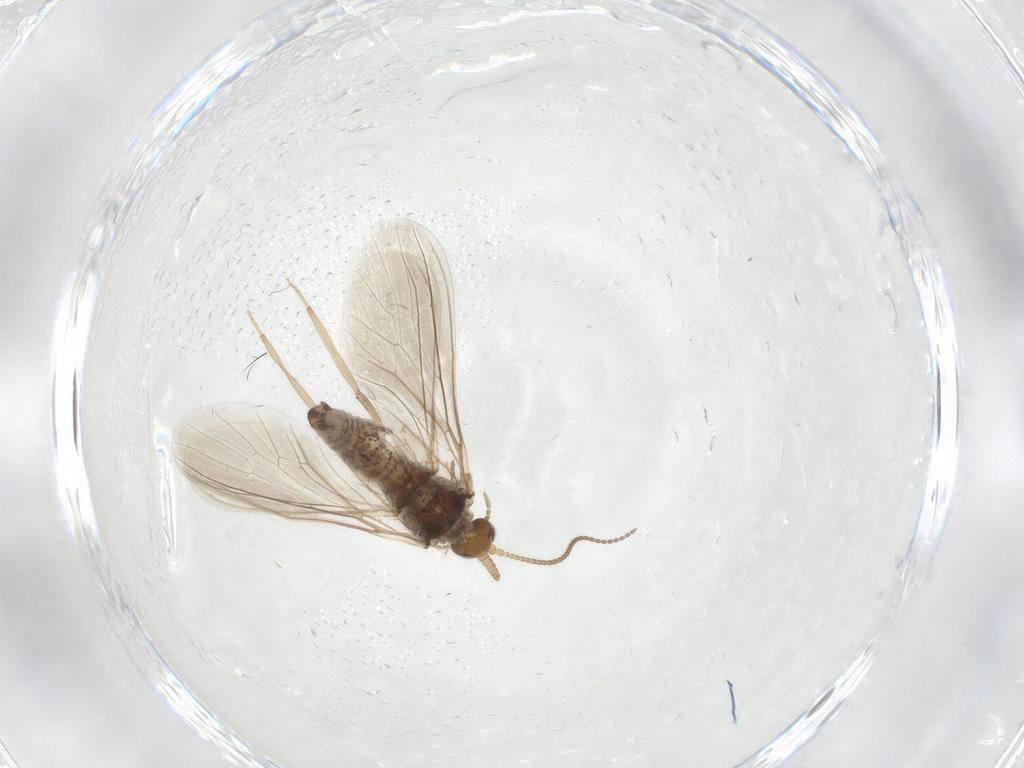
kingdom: Animalia
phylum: Arthropoda
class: Insecta
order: Neuroptera
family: Coniopterygidae
